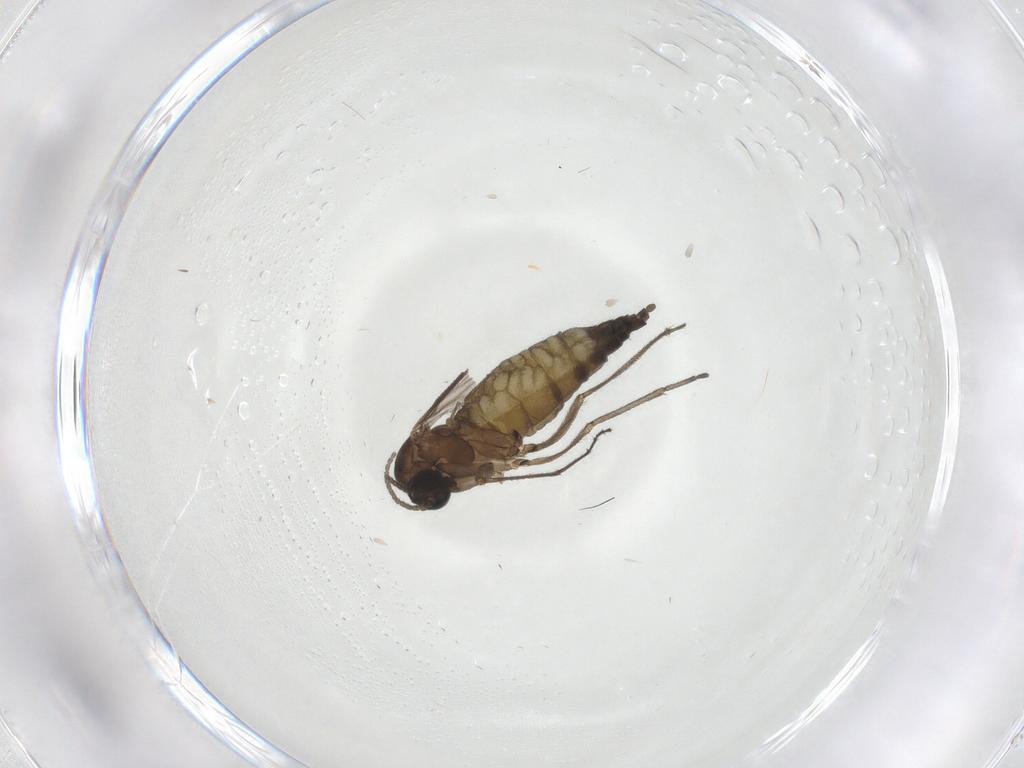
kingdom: Animalia
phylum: Arthropoda
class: Insecta
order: Diptera
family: Sciaridae
